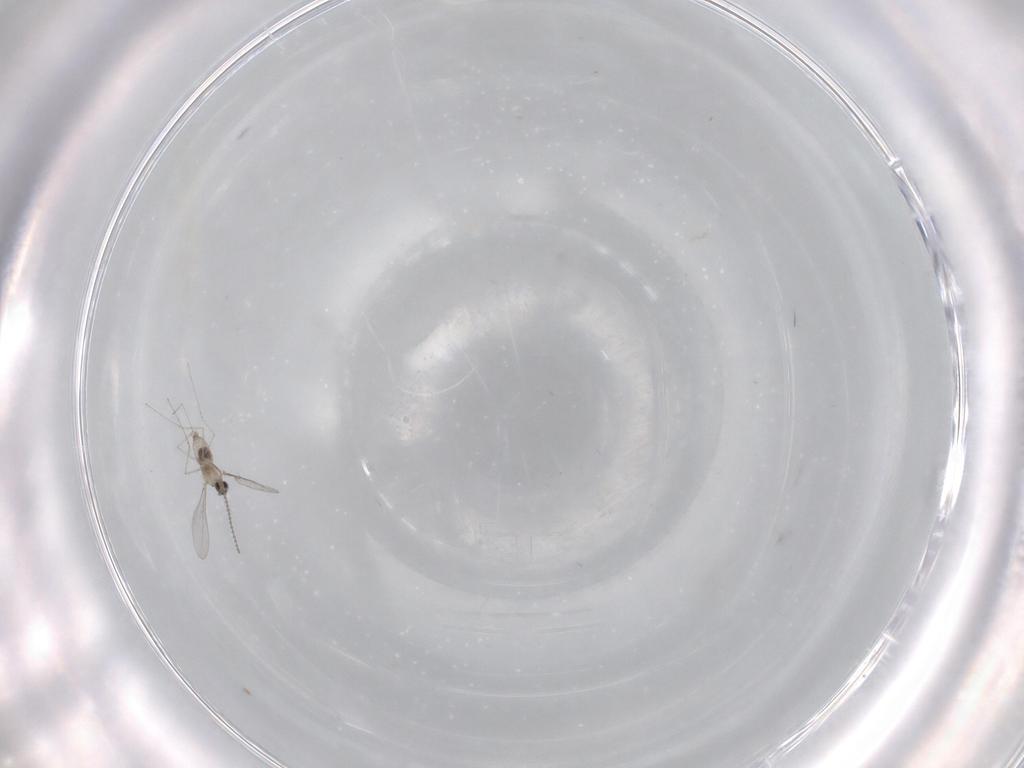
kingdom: Animalia
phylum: Arthropoda
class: Insecta
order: Diptera
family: Cecidomyiidae
